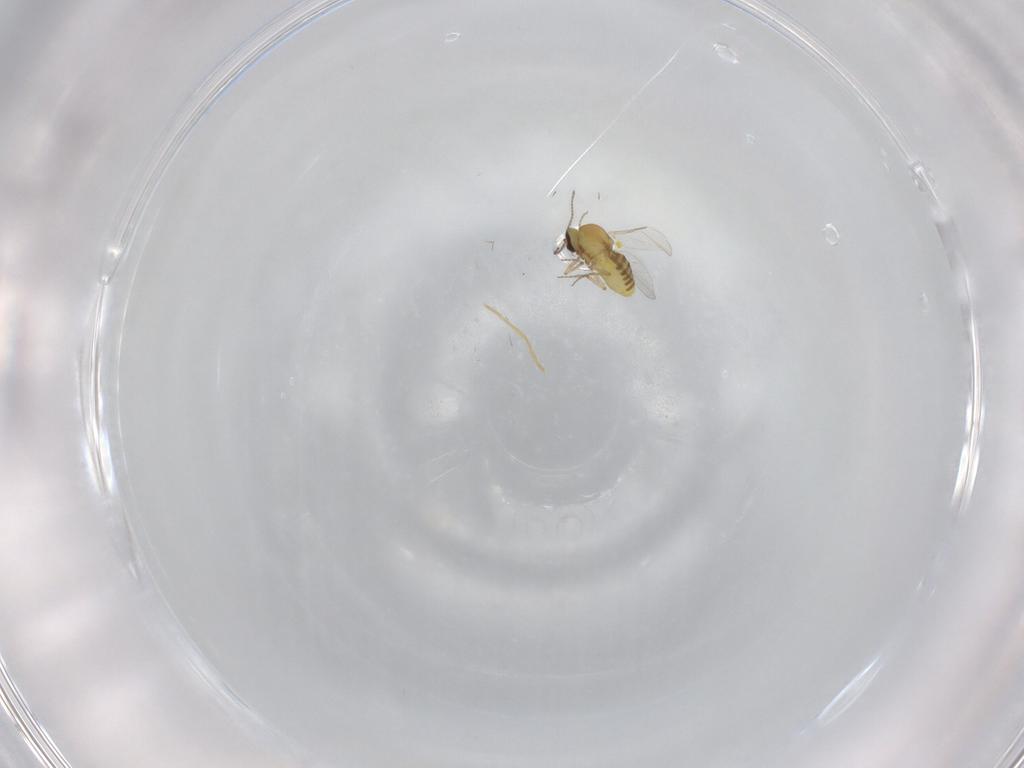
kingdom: Animalia
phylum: Arthropoda
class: Insecta
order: Diptera
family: Ceratopogonidae
